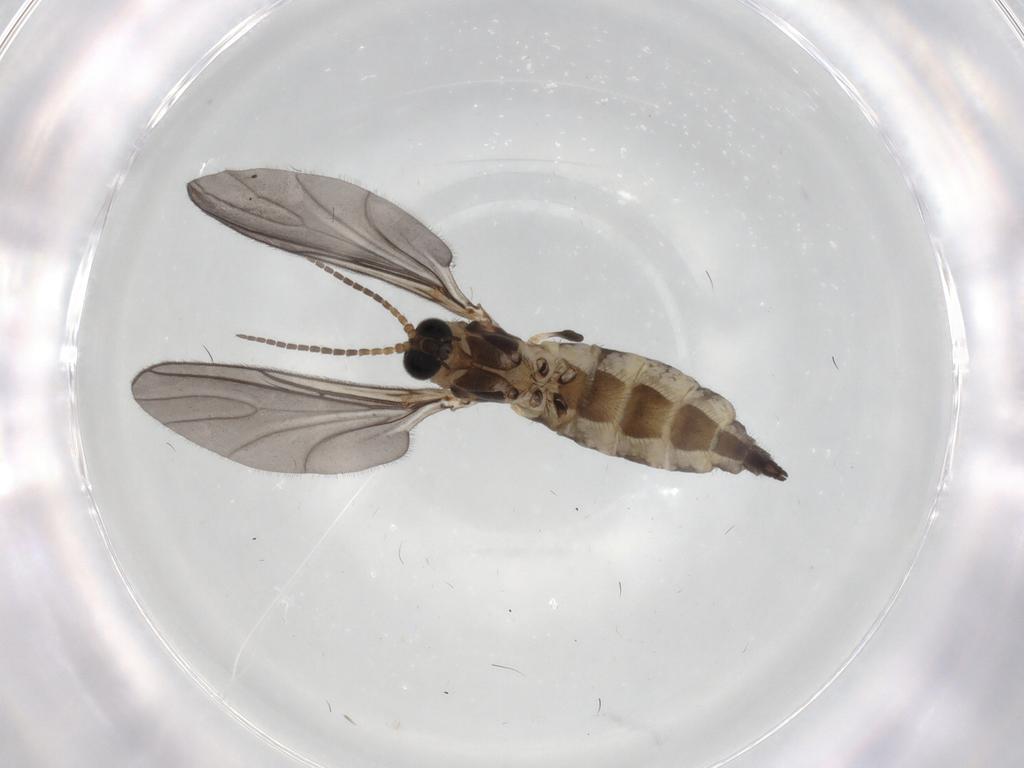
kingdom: Animalia
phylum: Arthropoda
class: Insecta
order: Diptera
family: Sciaridae
